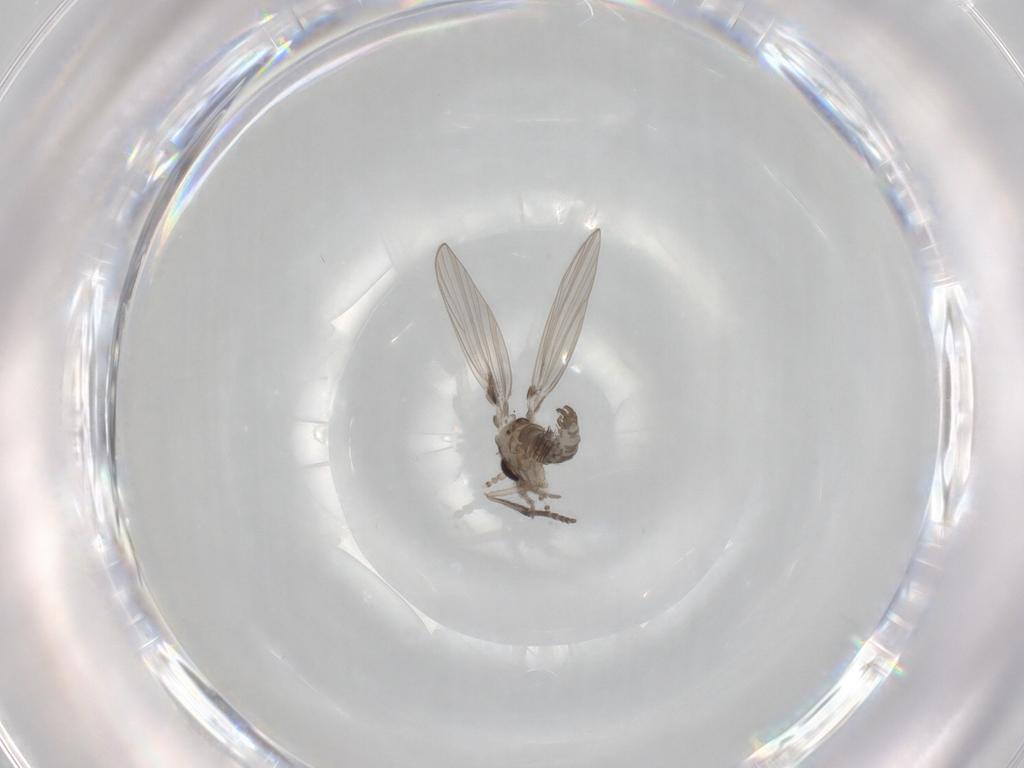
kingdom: Animalia
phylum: Arthropoda
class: Insecta
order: Diptera
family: Psychodidae
